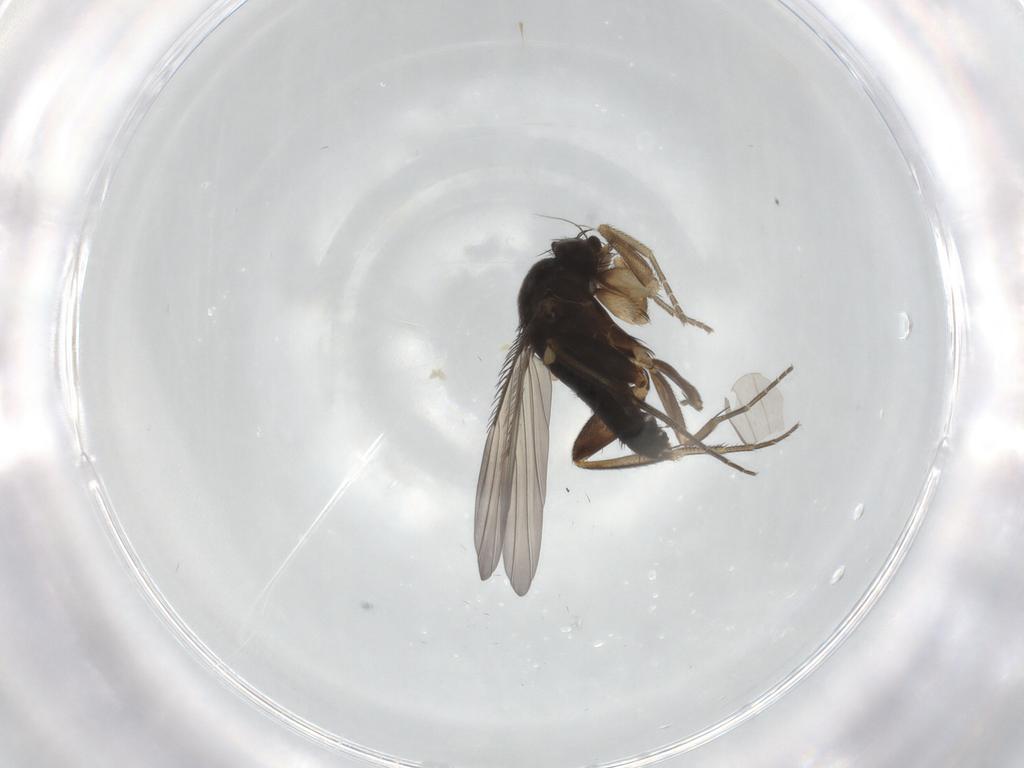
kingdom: Animalia
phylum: Arthropoda
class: Insecta
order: Diptera
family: Phoridae
